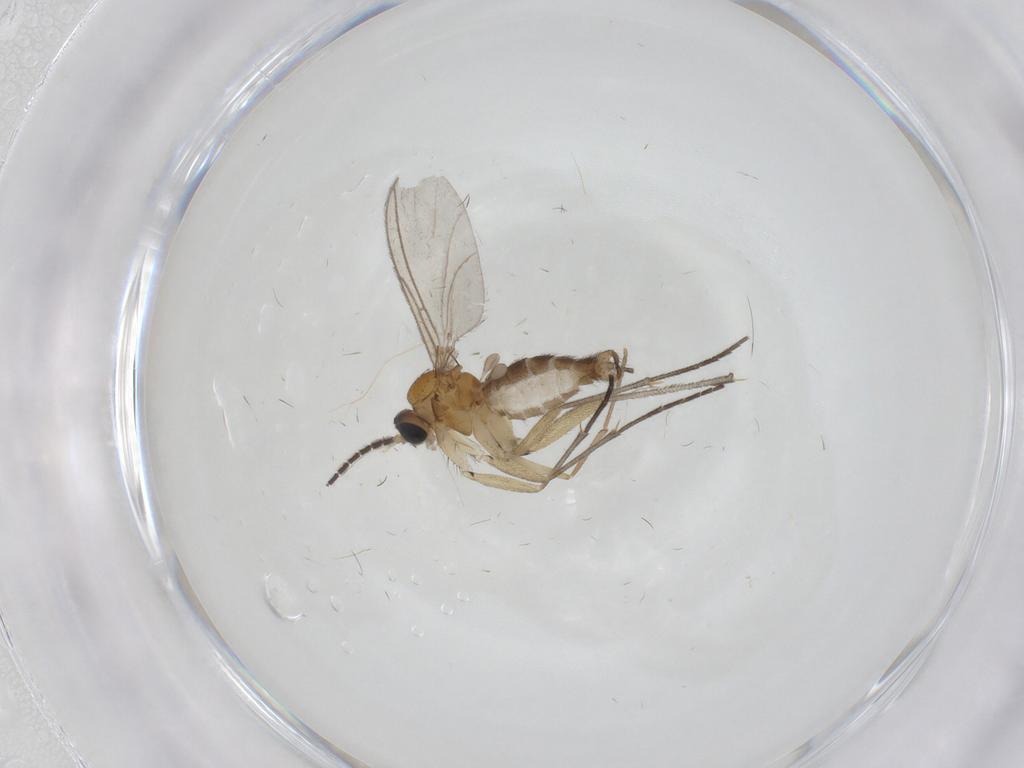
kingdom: Animalia
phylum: Arthropoda
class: Insecta
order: Diptera
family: Sciaridae
